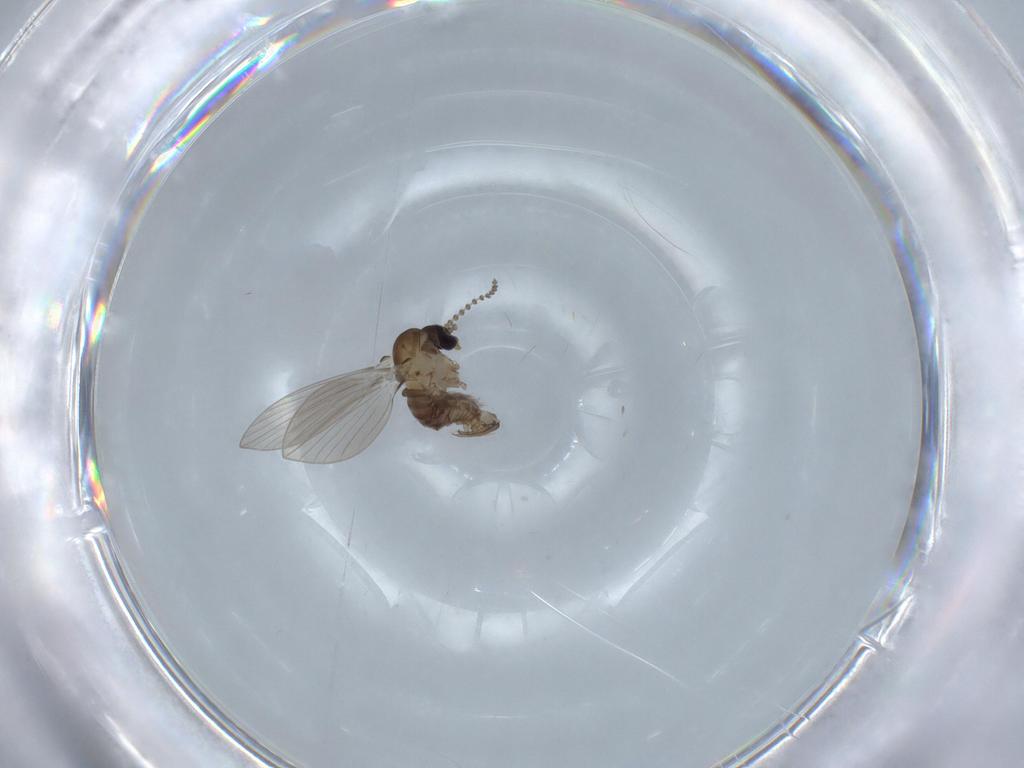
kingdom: Animalia
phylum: Arthropoda
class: Insecta
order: Diptera
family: Psychodidae
